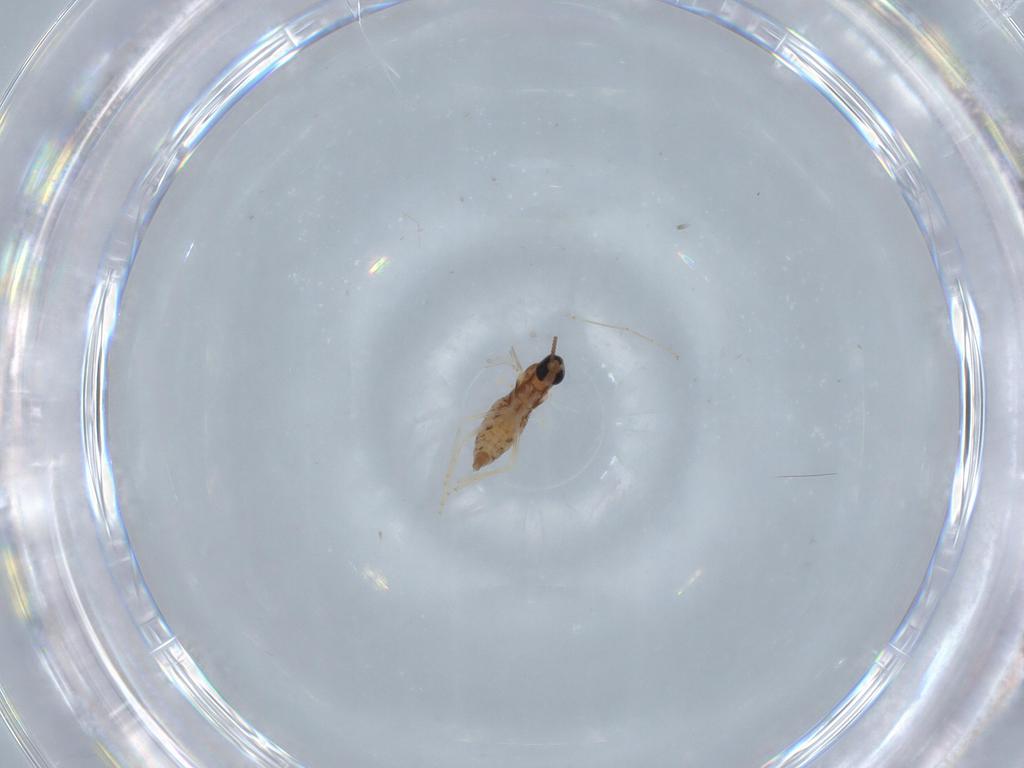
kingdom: Animalia
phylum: Arthropoda
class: Insecta
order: Diptera
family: Cecidomyiidae
